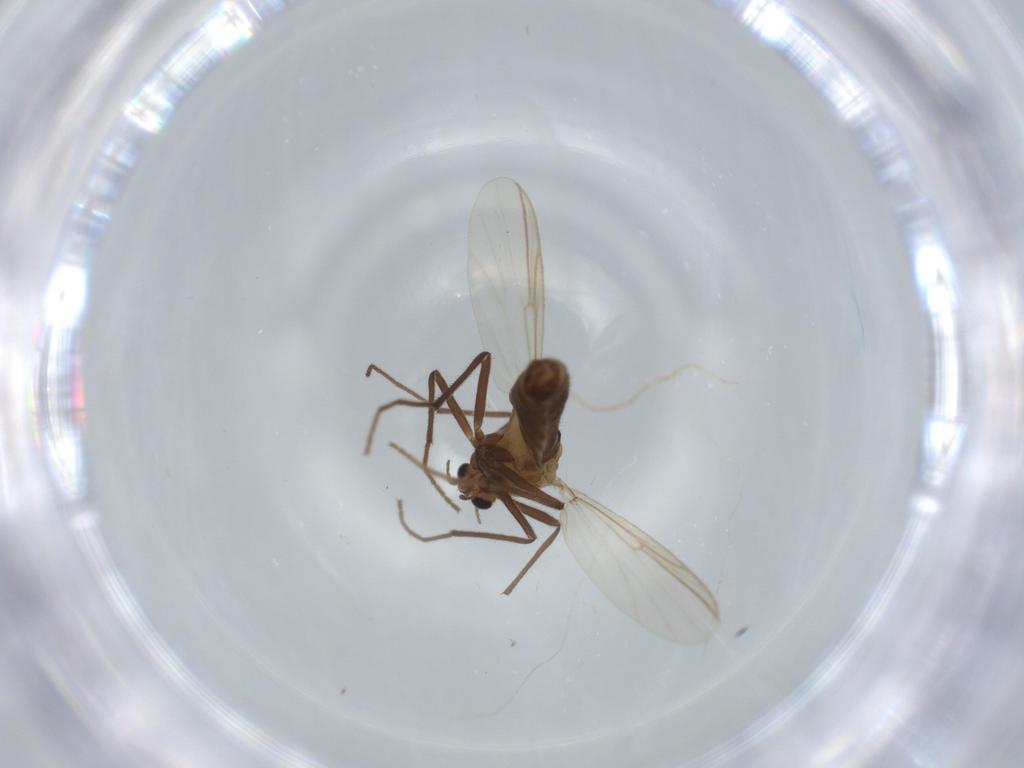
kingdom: Animalia
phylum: Arthropoda
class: Insecta
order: Diptera
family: Chironomidae
